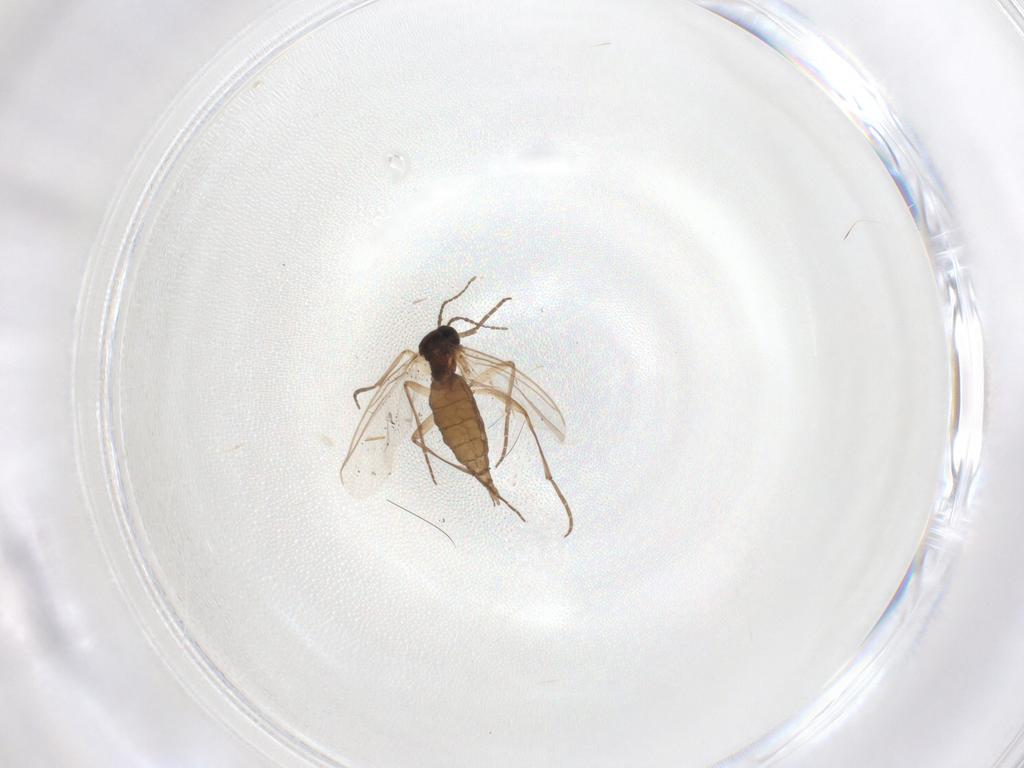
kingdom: Animalia
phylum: Arthropoda
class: Insecta
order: Diptera
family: Sciaridae
